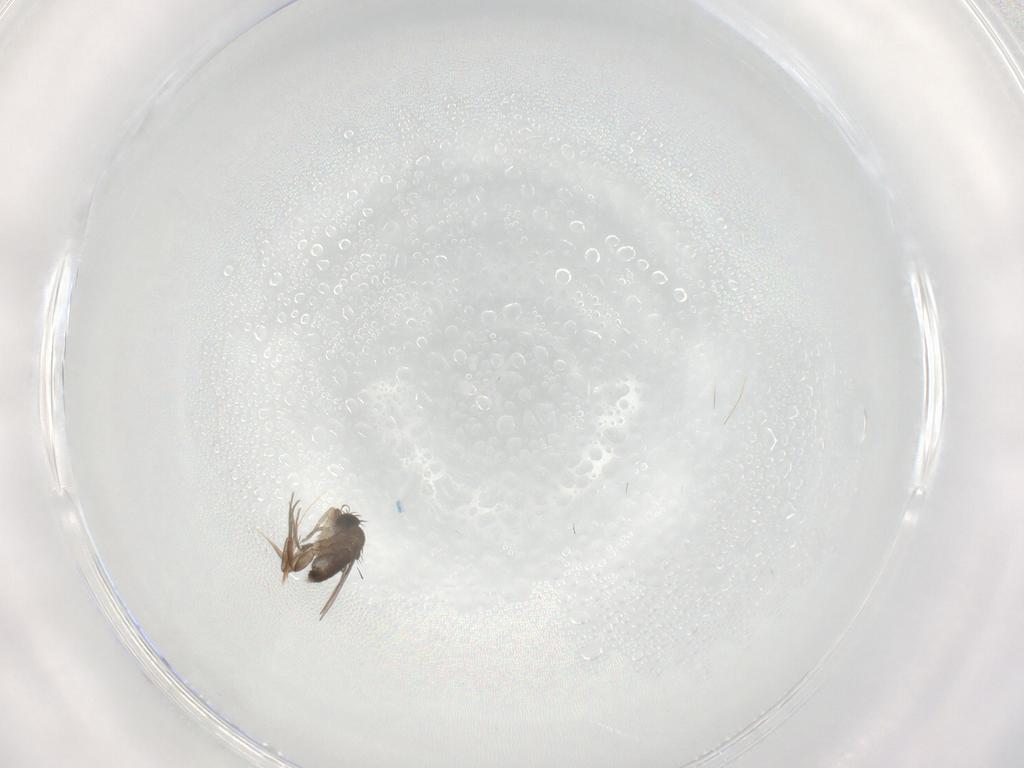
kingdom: Animalia
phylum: Arthropoda
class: Insecta
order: Diptera
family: Phoridae
